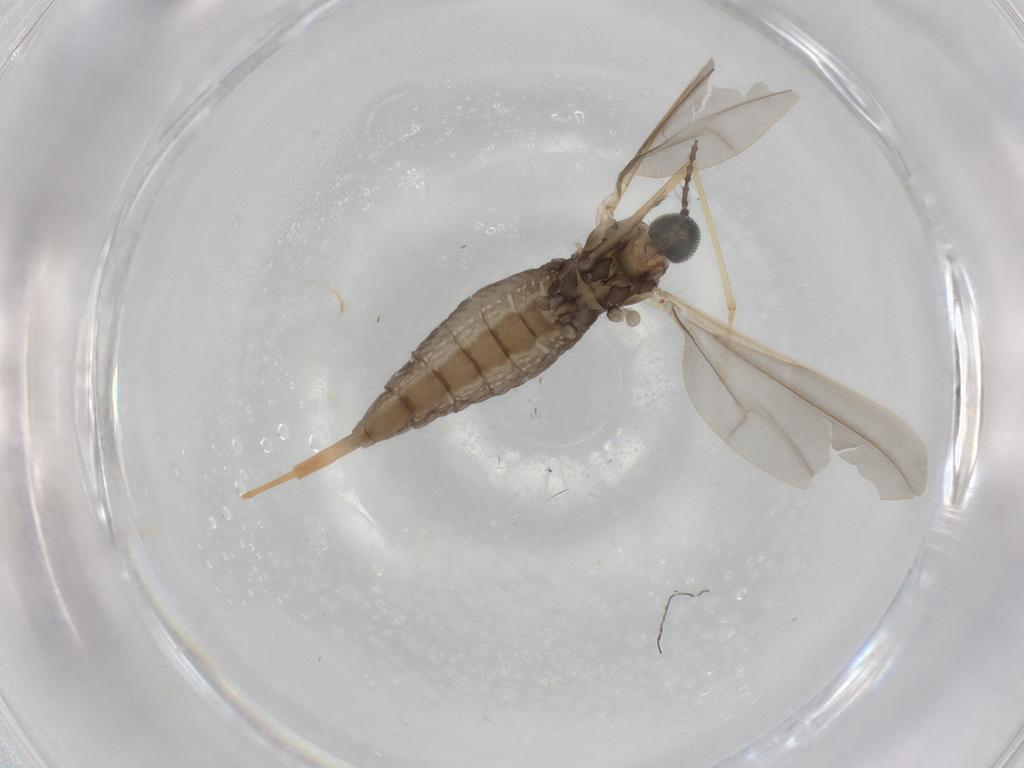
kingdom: Animalia
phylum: Arthropoda
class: Insecta
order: Diptera
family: Cecidomyiidae
